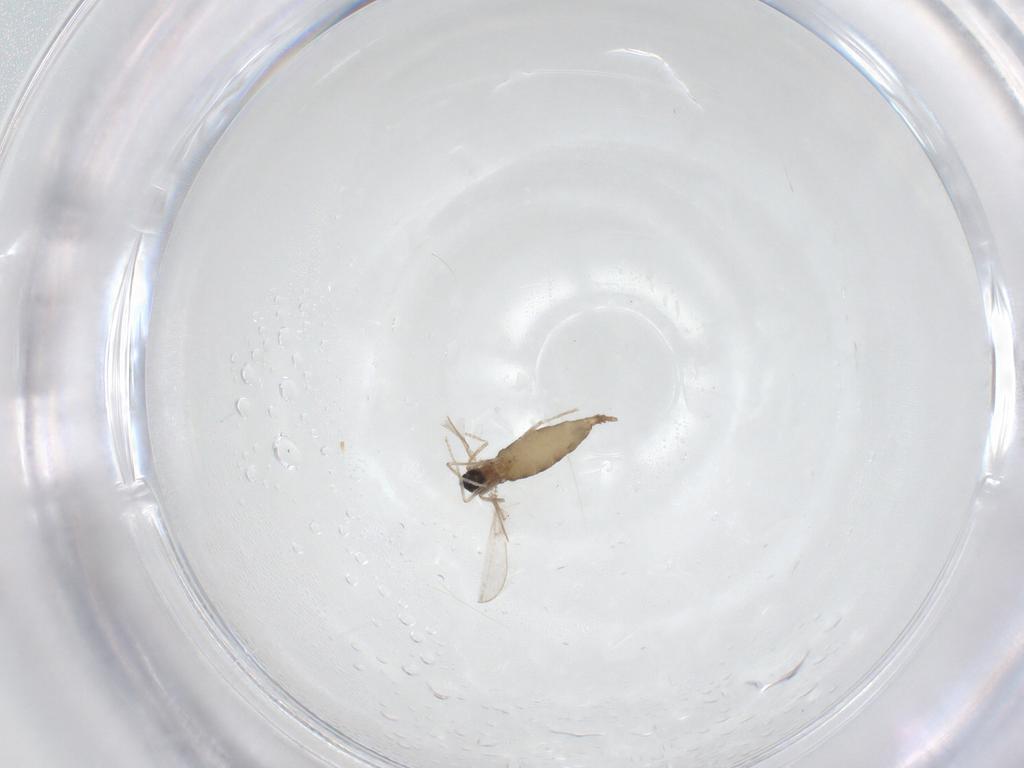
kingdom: Animalia
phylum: Arthropoda
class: Insecta
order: Diptera
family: Cecidomyiidae
